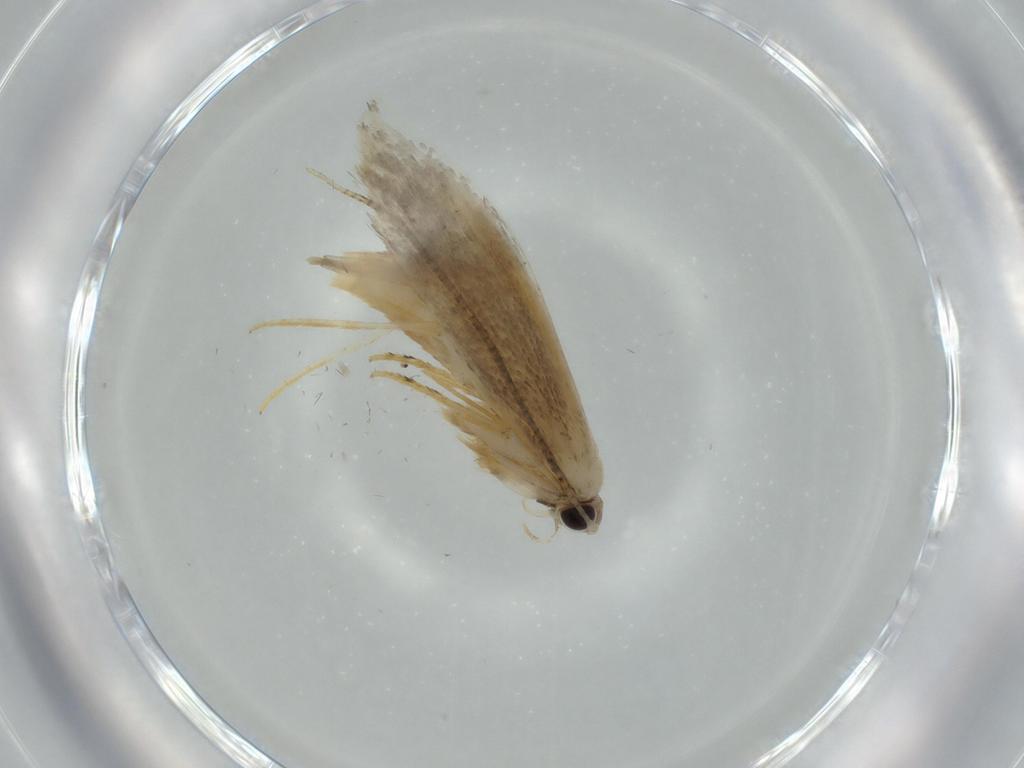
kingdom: Animalia
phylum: Arthropoda
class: Insecta
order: Lepidoptera
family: Tineidae
